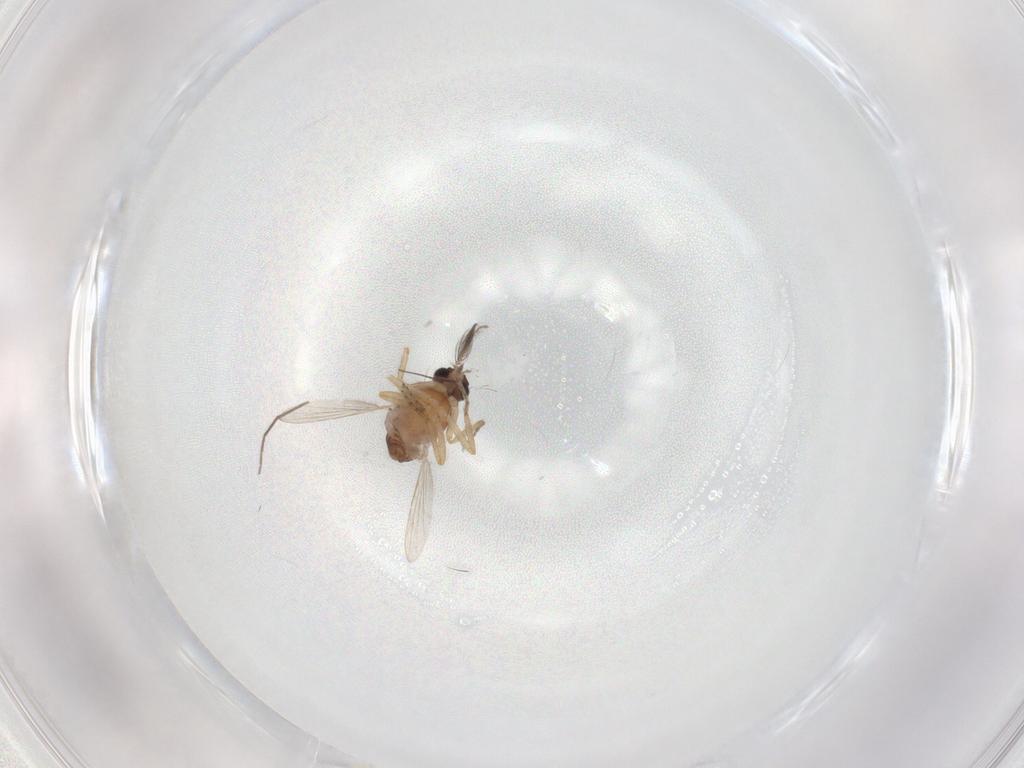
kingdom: Animalia
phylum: Arthropoda
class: Insecta
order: Diptera
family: Ceratopogonidae
